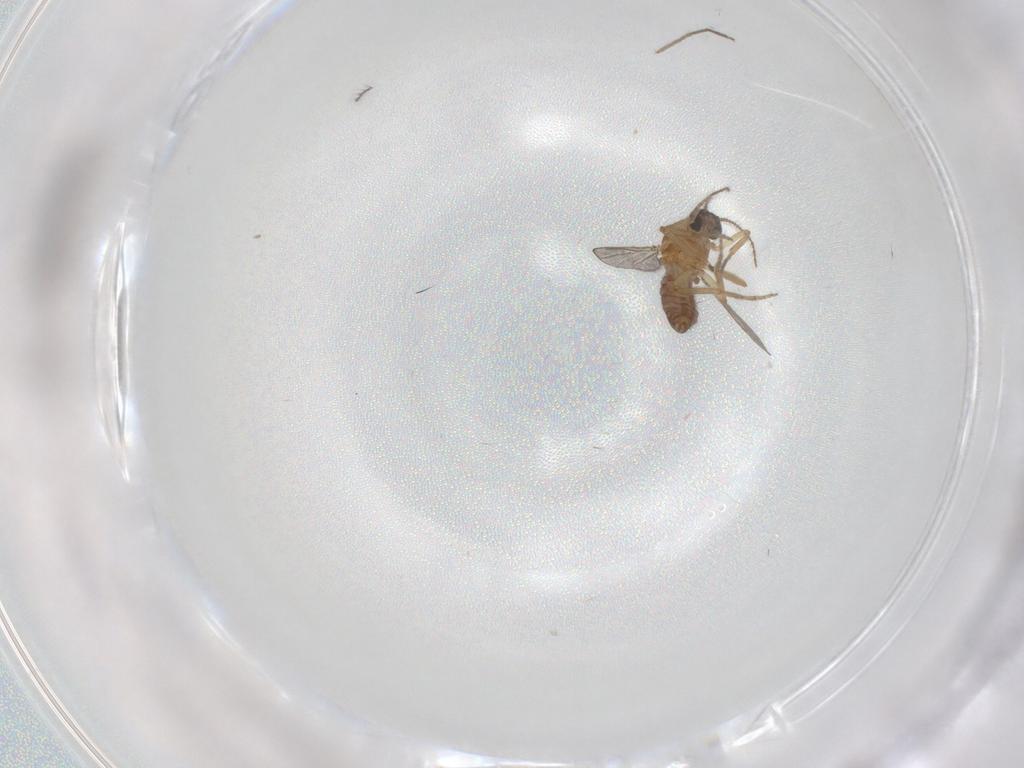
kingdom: Animalia
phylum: Arthropoda
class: Insecta
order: Diptera
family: Ceratopogonidae
